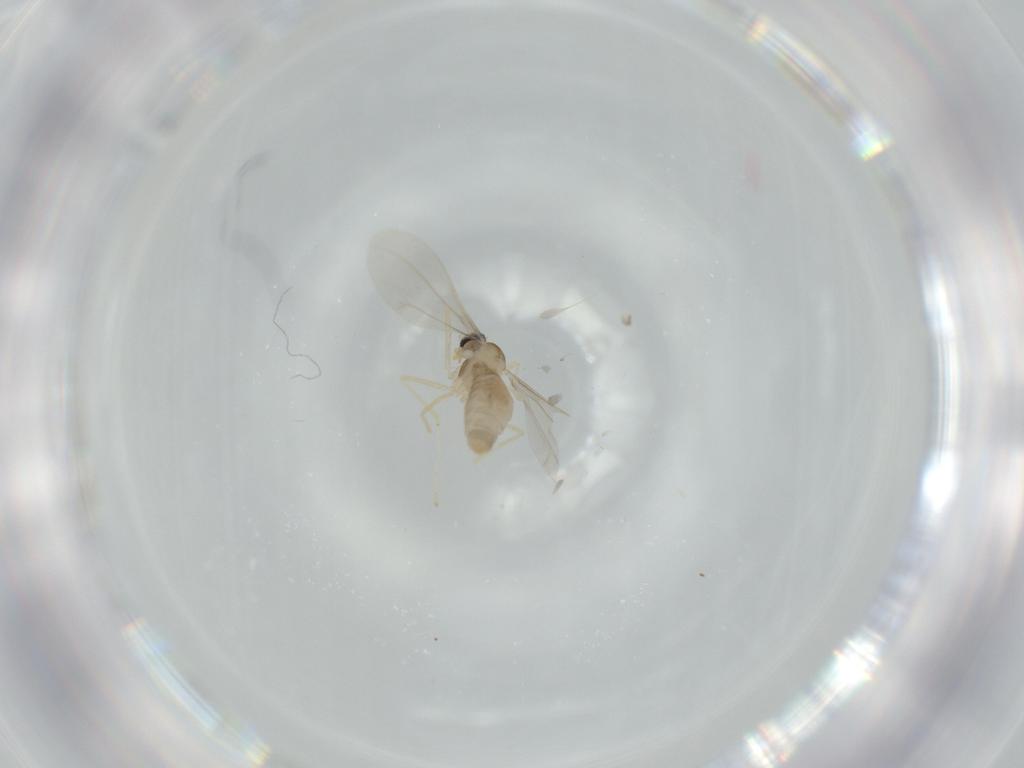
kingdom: Animalia
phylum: Arthropoda
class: Insecta
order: Diptera
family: Cecidomyiidae
